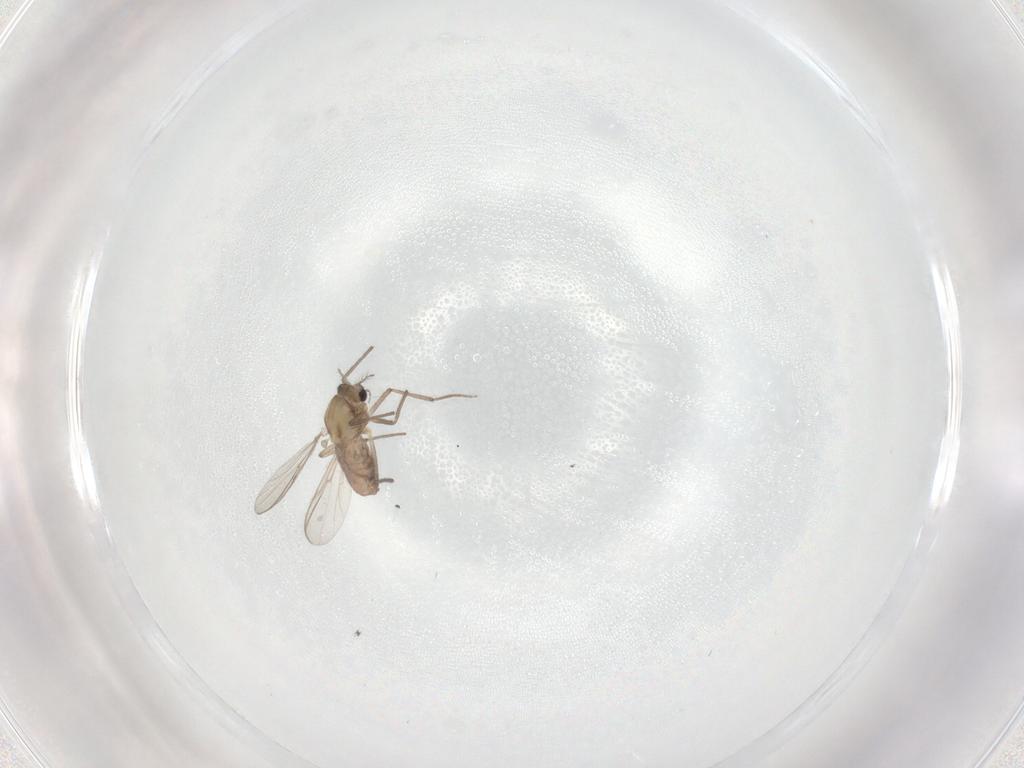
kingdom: Animalia
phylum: Arthropoda
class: Insecta
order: Diptera
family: Chironomidae
